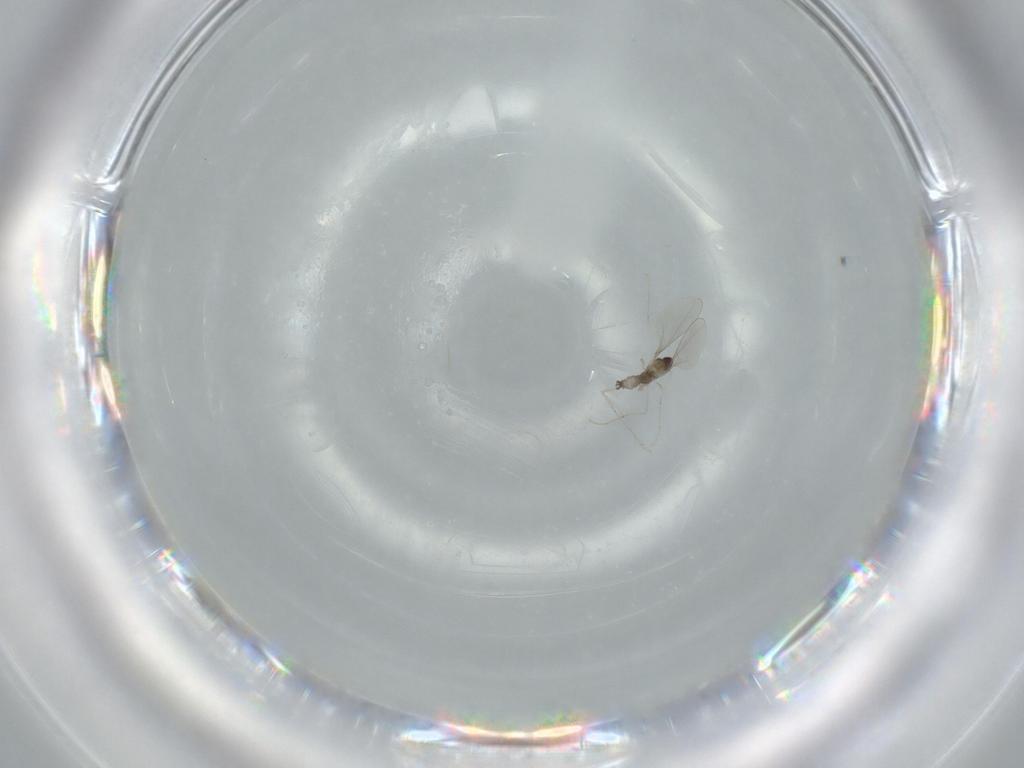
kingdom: Animalia
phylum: Arthropoda
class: Insecta
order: Diptera
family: Cecidomyiidae
